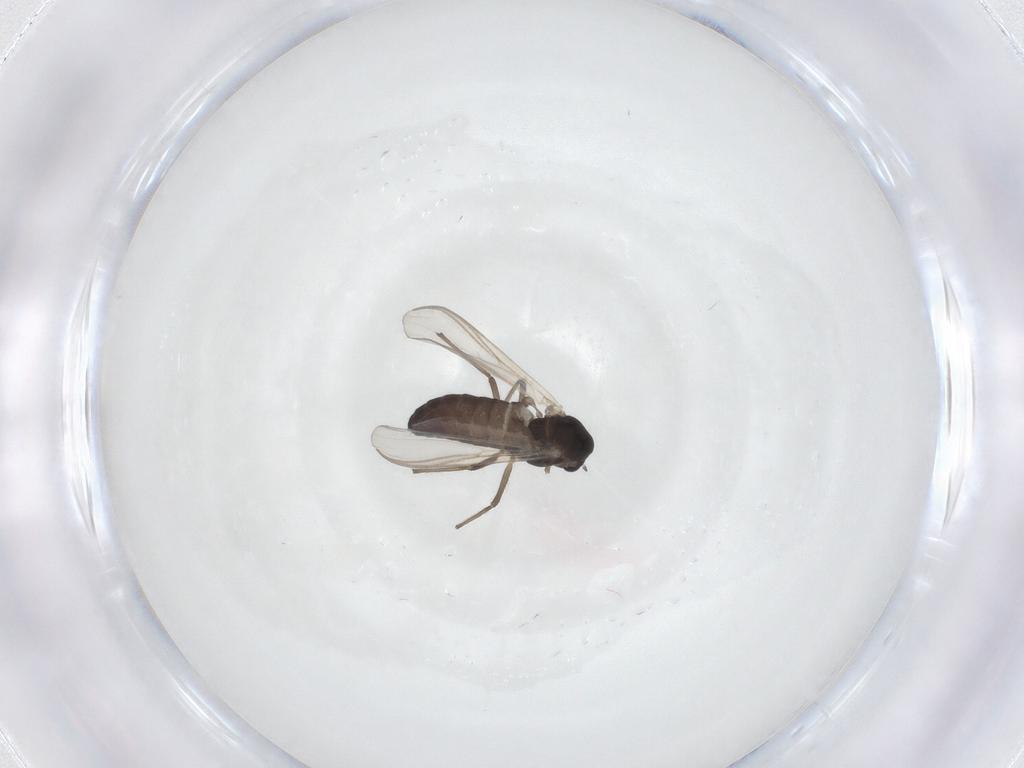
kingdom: Animalia
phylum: Arthropoda
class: Insecta
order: Diptera
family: Chironomidae
